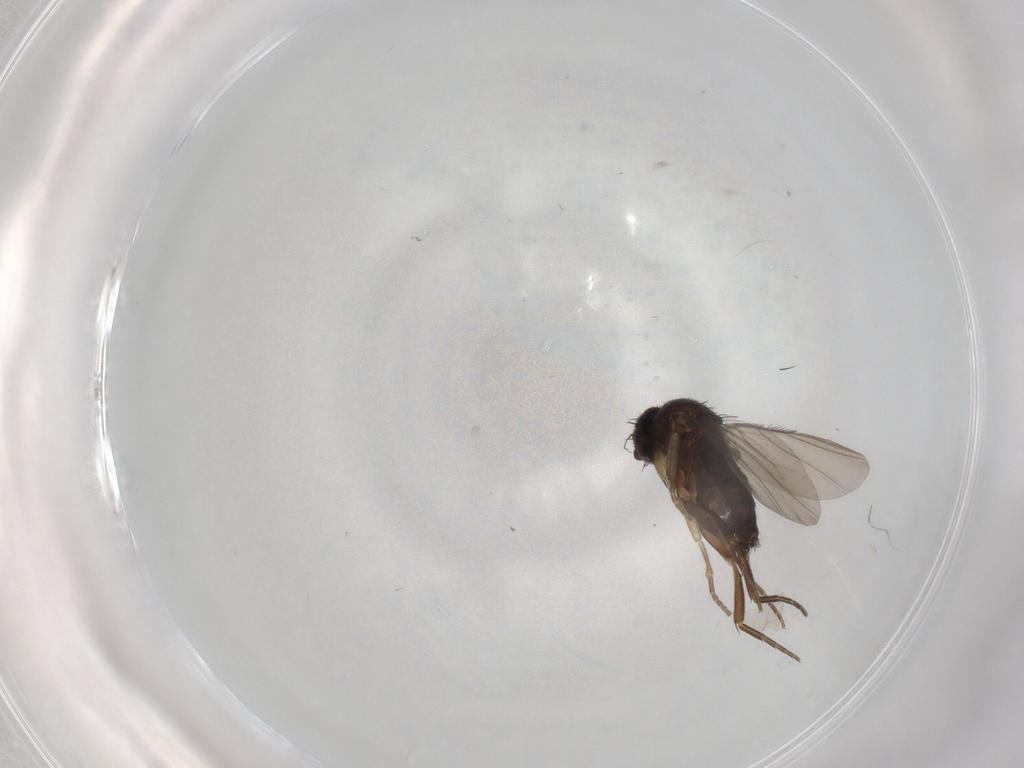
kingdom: Animalia
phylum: Arthropoda
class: Insecta
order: Diptera
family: Phoridae
